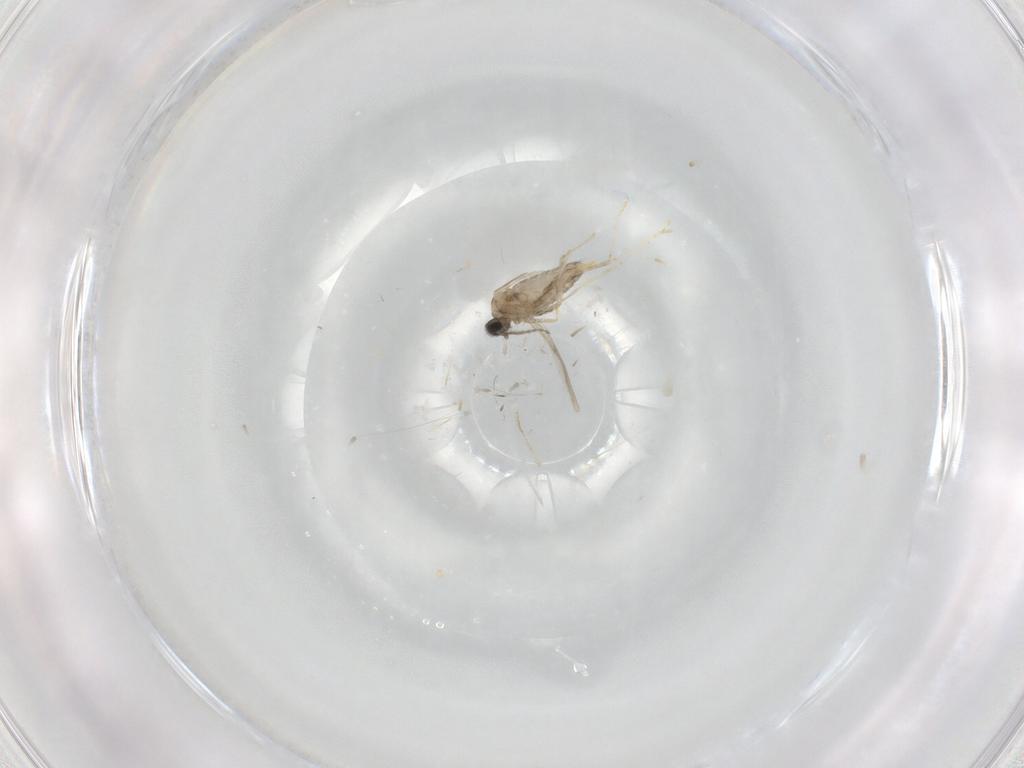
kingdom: Animalia
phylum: Arthropoda
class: Insecta
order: Diptera
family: Cecidomyiidae
